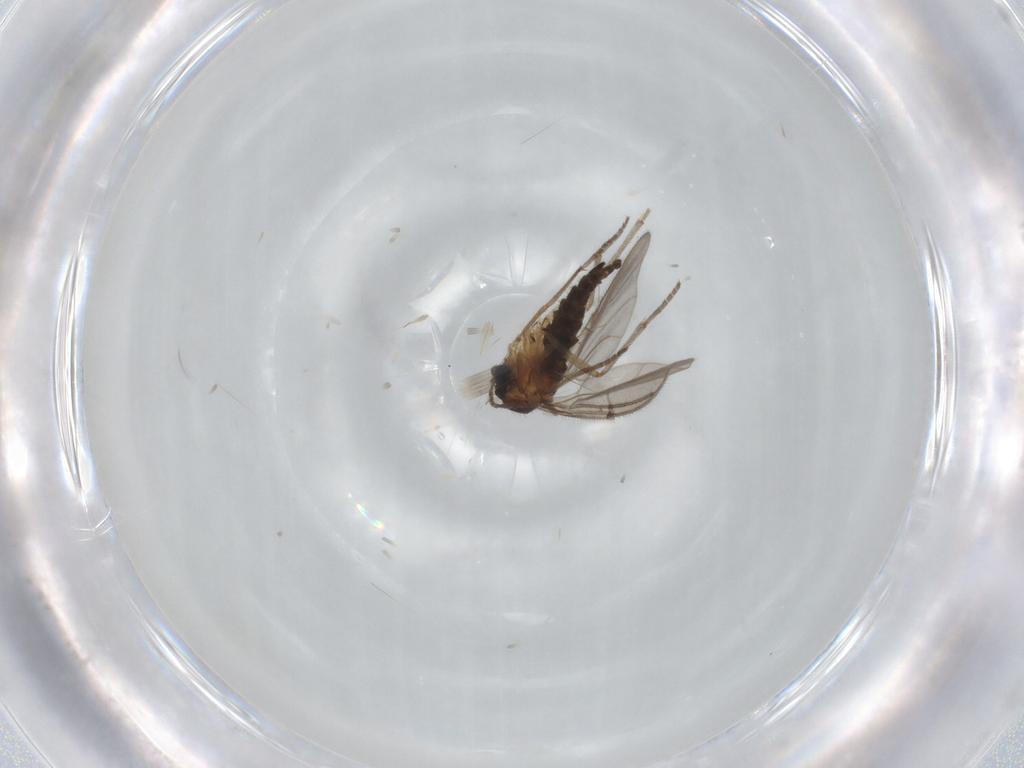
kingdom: Animalia
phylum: Arthropoda
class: Insecta
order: Diptera
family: Sciaridae
